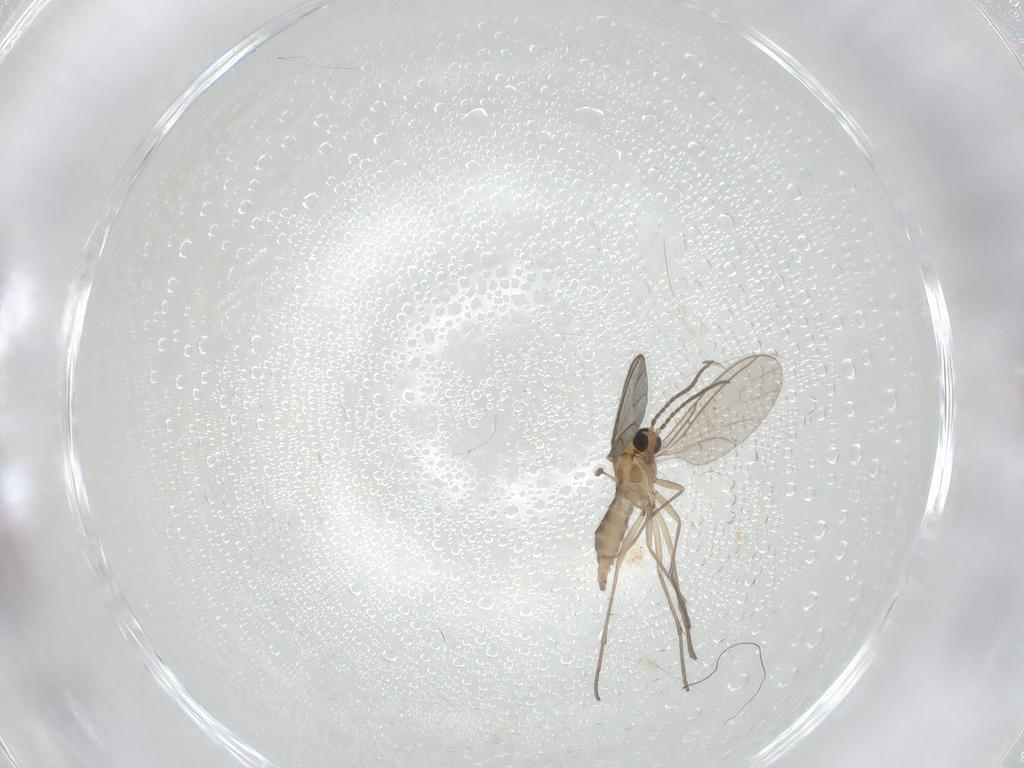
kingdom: Animalia
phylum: Arthropoda
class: Insecta
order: Diptera
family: Sciaridae
